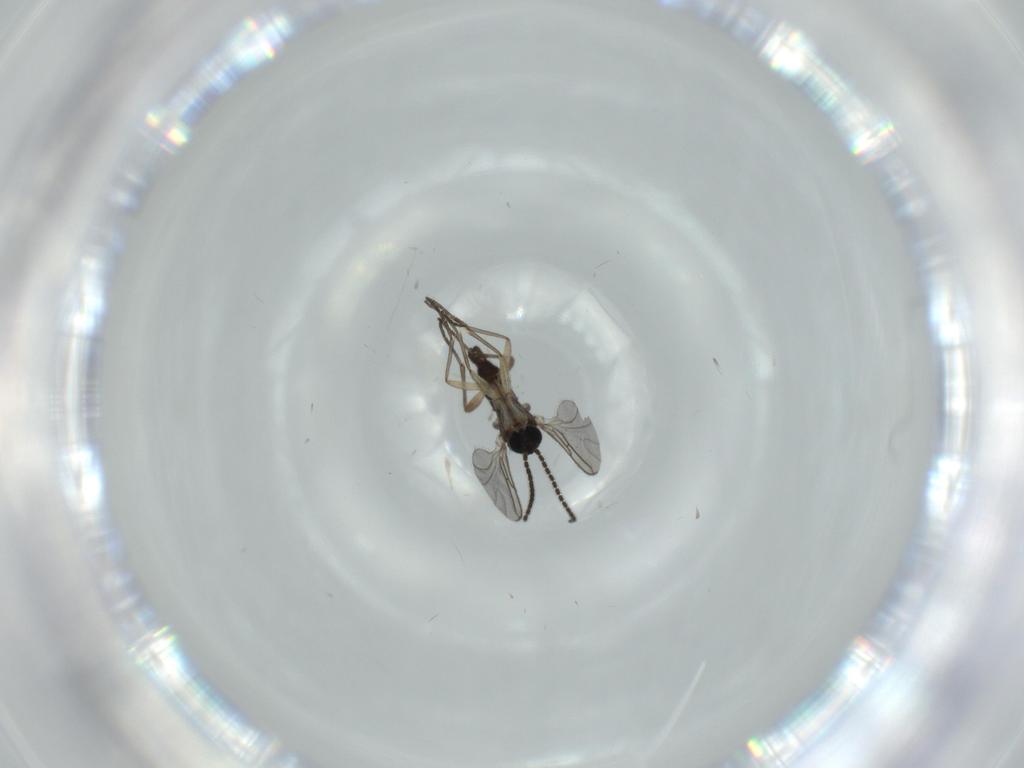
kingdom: Animalia
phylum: Arthropoda
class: Insecta
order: Diptera
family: Sciaridae
